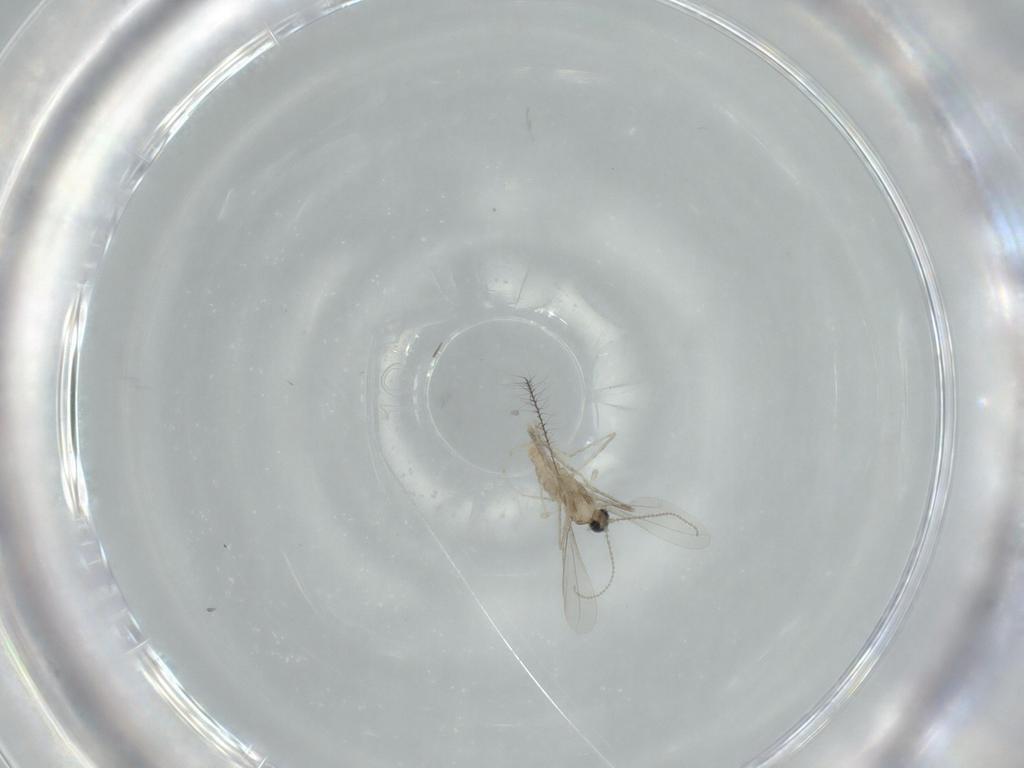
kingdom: Animalia
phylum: Arthropoda
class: Insecta
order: Diptera
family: Cecidomyiidae
